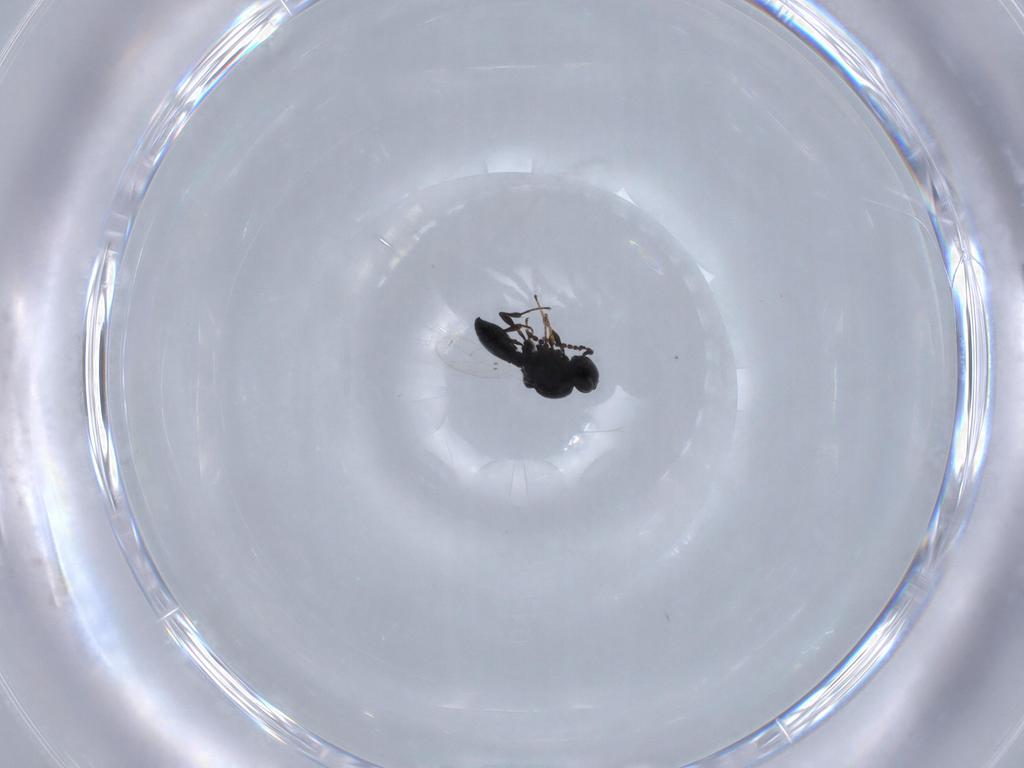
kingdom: Animalia
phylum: Arthropoda
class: Insecta
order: Diptera
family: Mythicomyiidae
